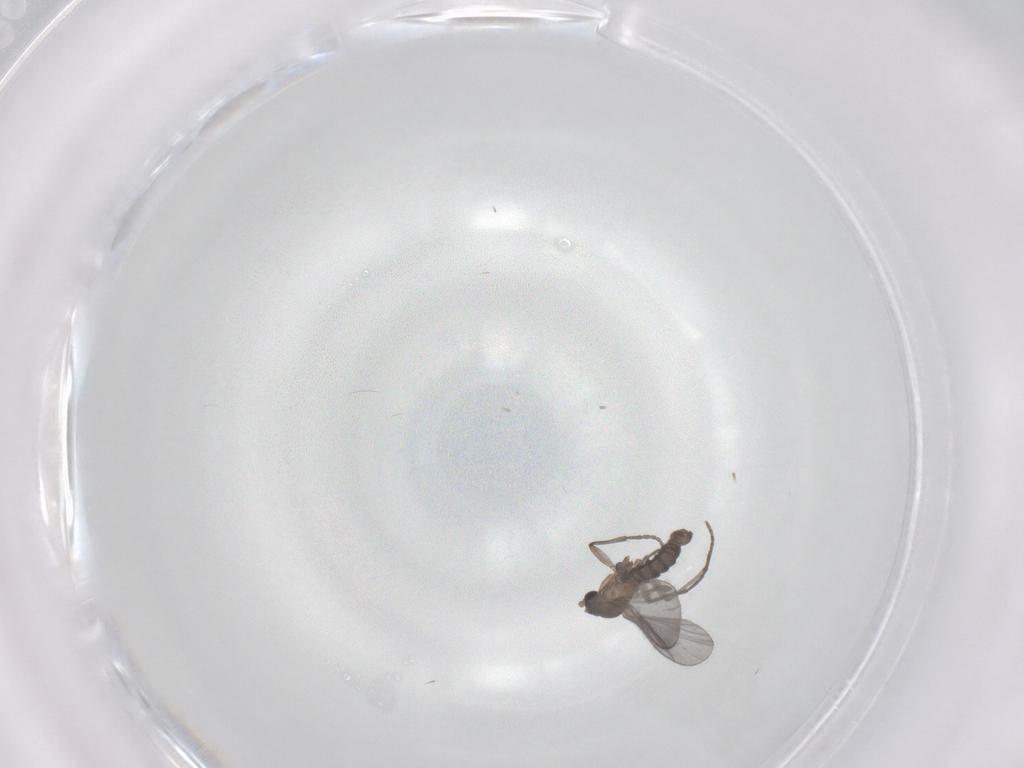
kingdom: Animalia
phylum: Arthropoda
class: Insecta
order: Diptera
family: Sciaridae
